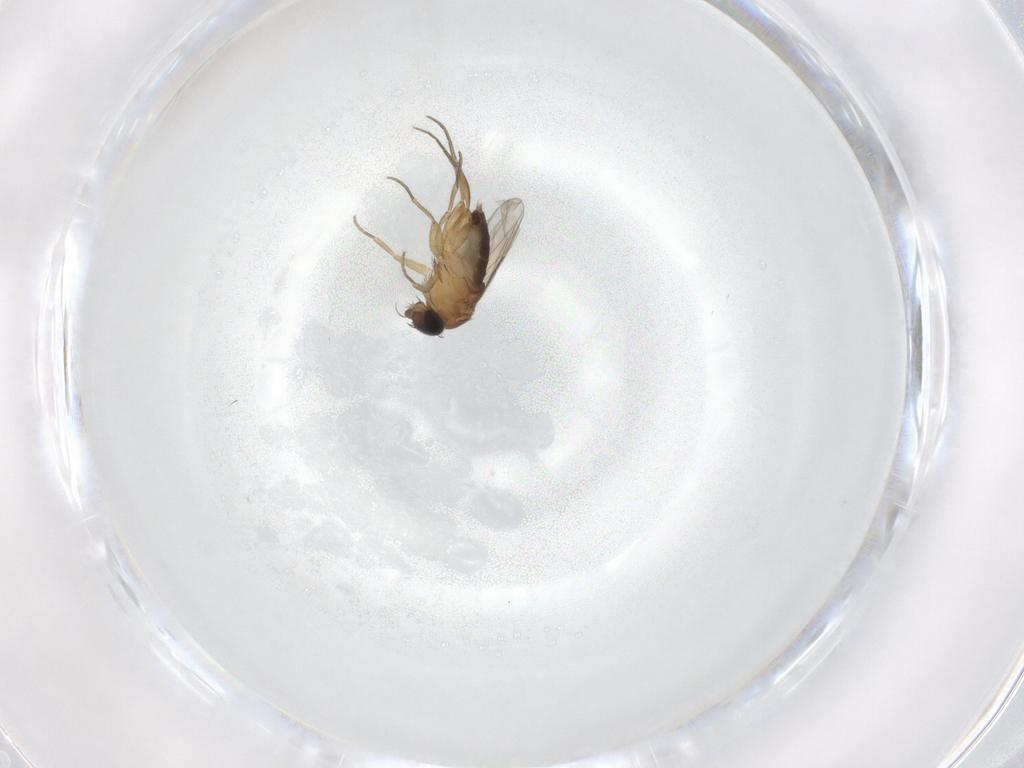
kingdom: Animalia
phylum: Arthropoda
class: Insecta
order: Diptera
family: Phoridae
